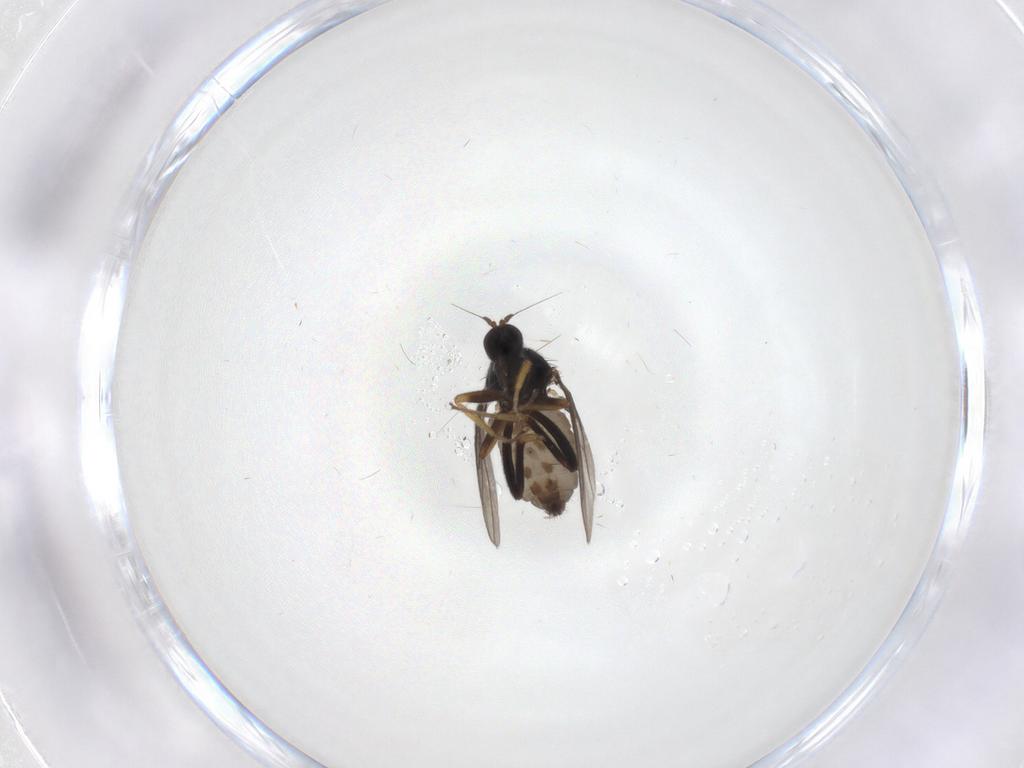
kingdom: Animalia
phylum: Arthropoda
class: Insecta
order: Diptera
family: Hybotidae
